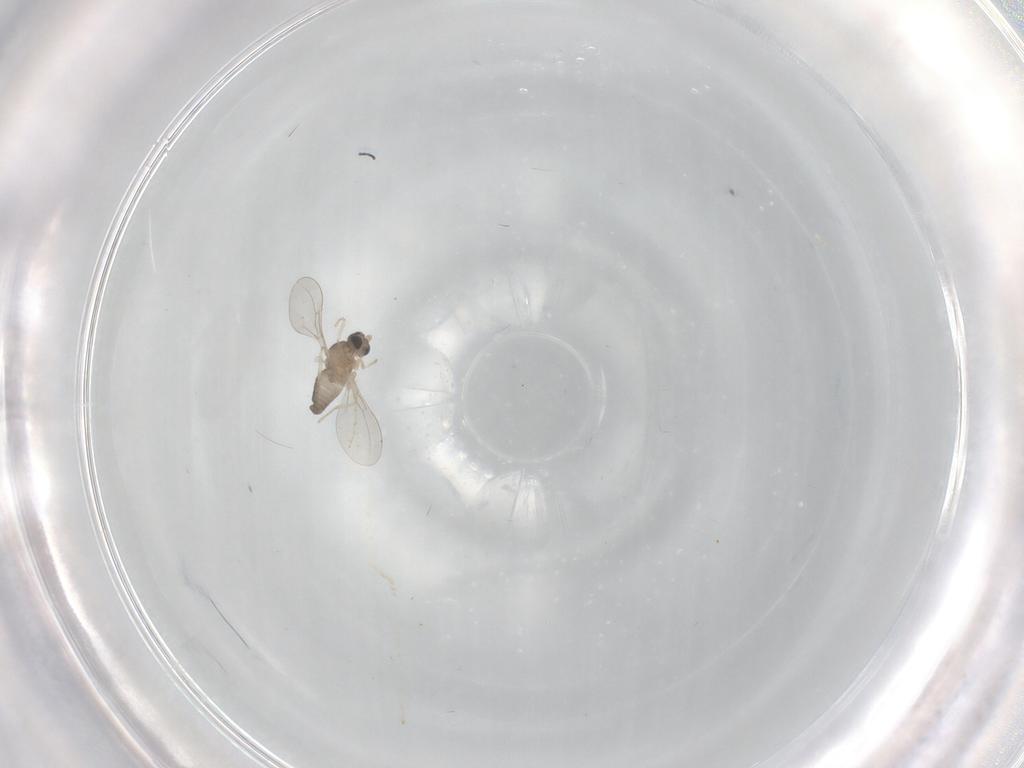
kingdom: Animalia
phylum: Arthropoda
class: Insecta
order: Diptera
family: Cecidomyiidae
